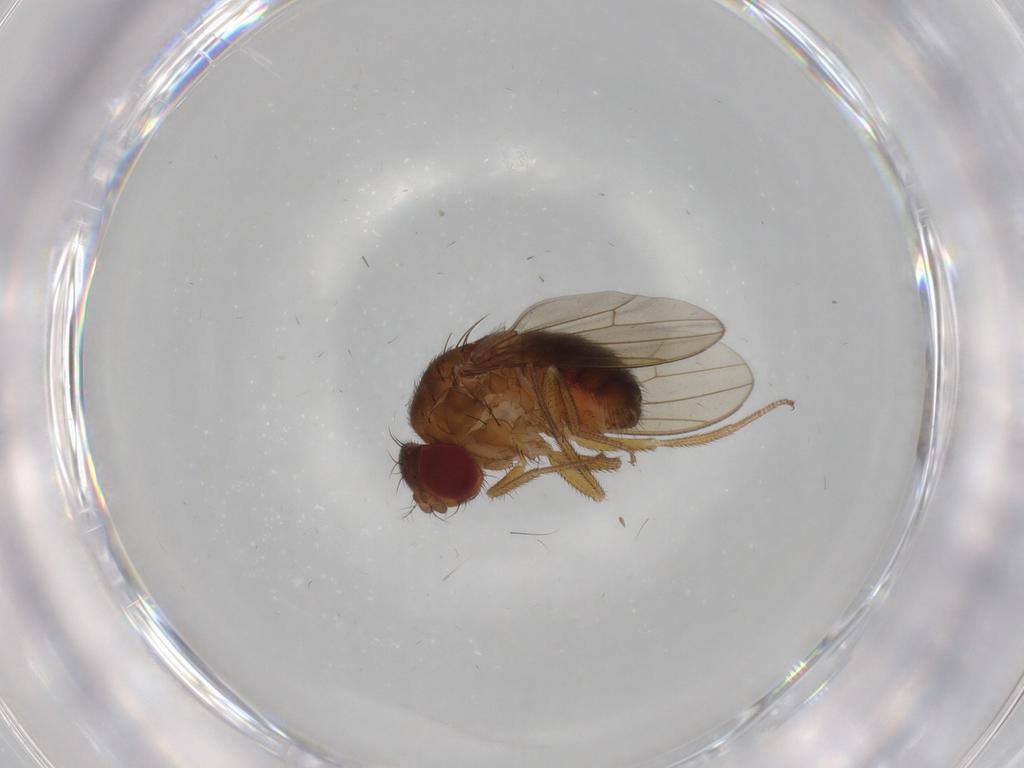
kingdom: Animalia
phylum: Arthropoda
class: Insecta
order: Diptera
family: Drosophilidae
